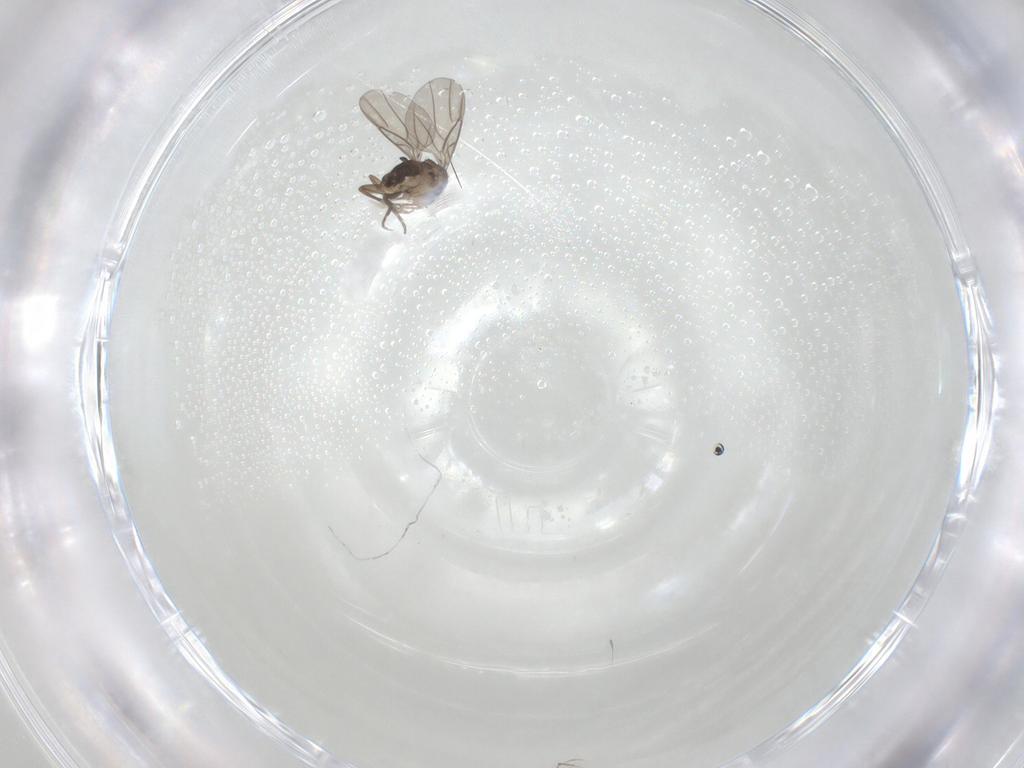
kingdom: Animalia
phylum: Arthropoda
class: Insecta
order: Diptera
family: Phoridae
